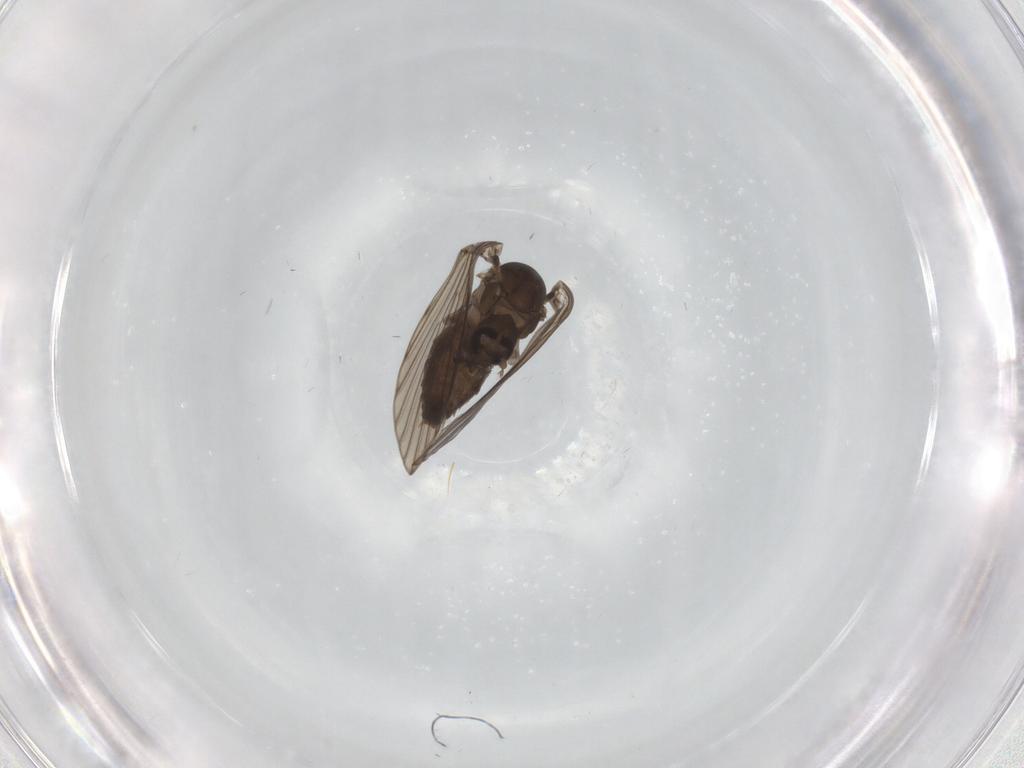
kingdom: Animalia
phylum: Arthropoda
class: Insecta
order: Diptera
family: Psychodidae
